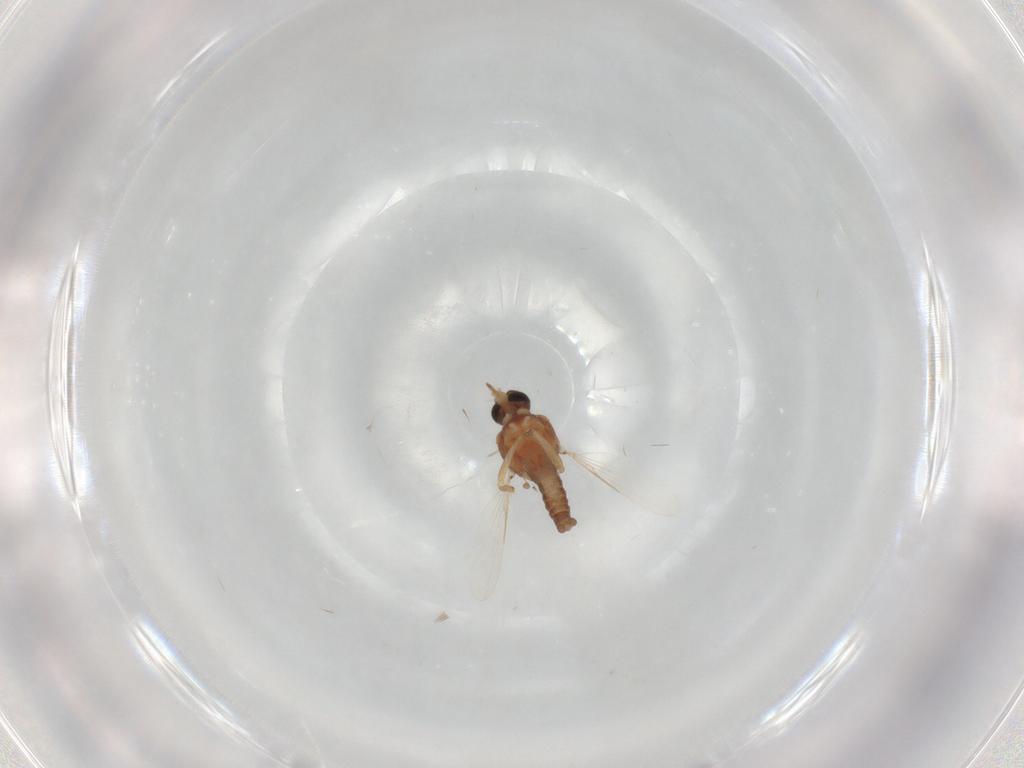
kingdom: Animalia
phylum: Arthropoda
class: Insecta
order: Diptera
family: Ceratopogonidae
